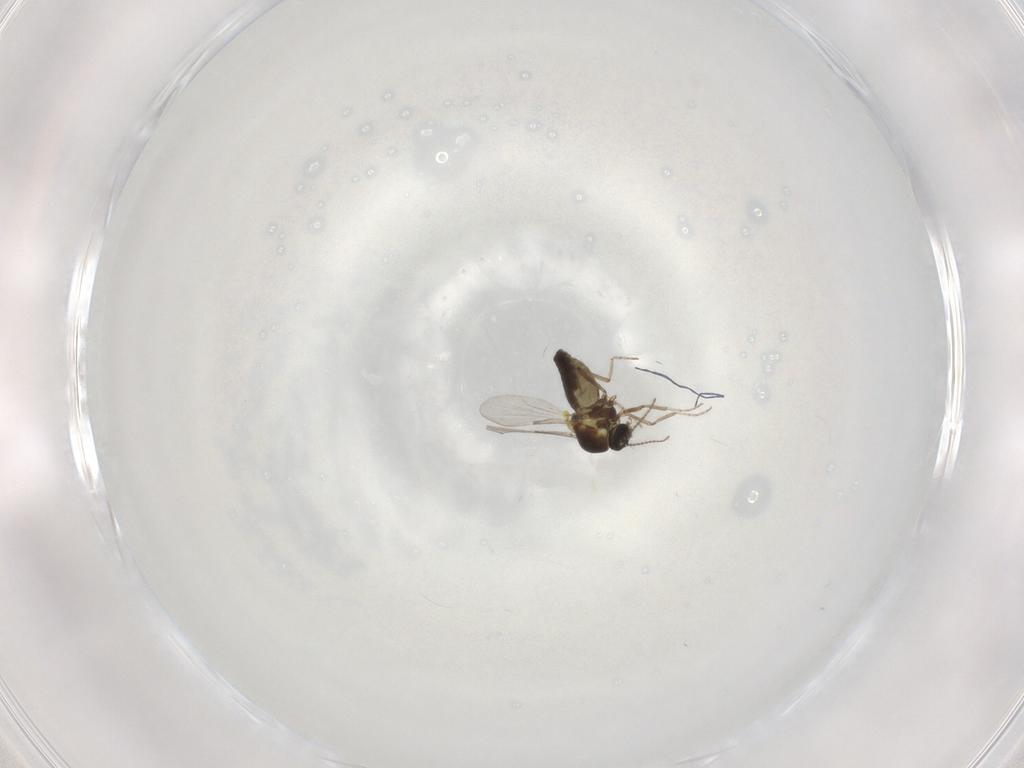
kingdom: Animalia
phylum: Arthropoda
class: Insecta
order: Diptera
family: Ceratopogonidae
